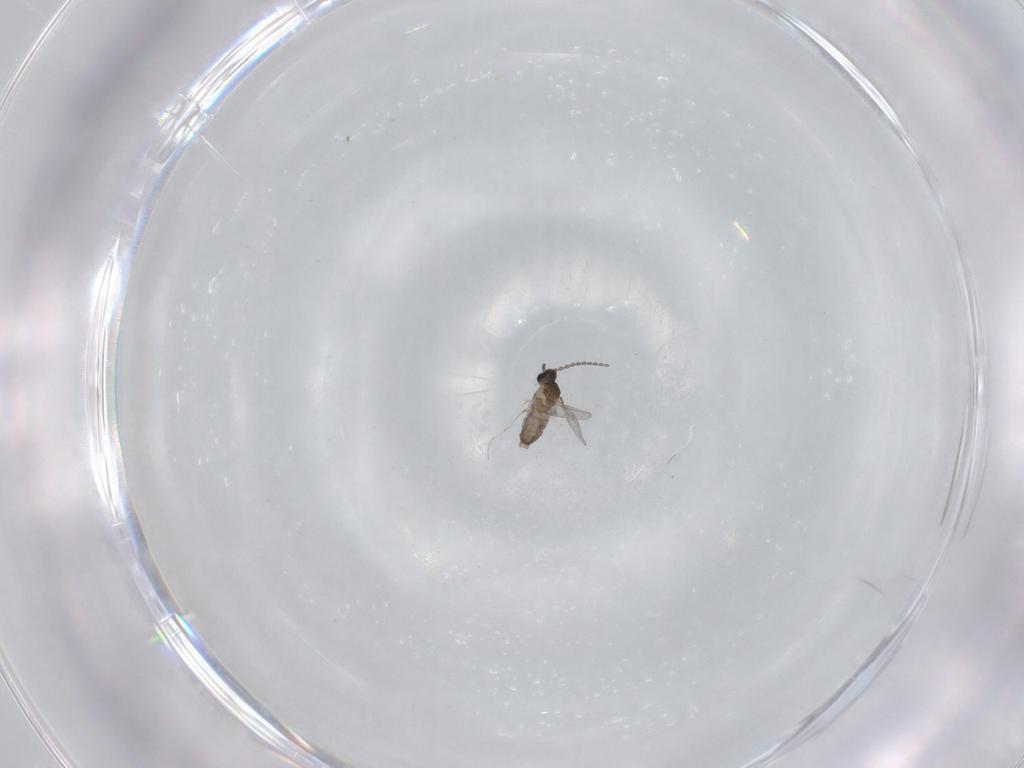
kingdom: Animalia
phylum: Arthropoda
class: Insecta
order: Diptera
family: Cecidomyiidae
